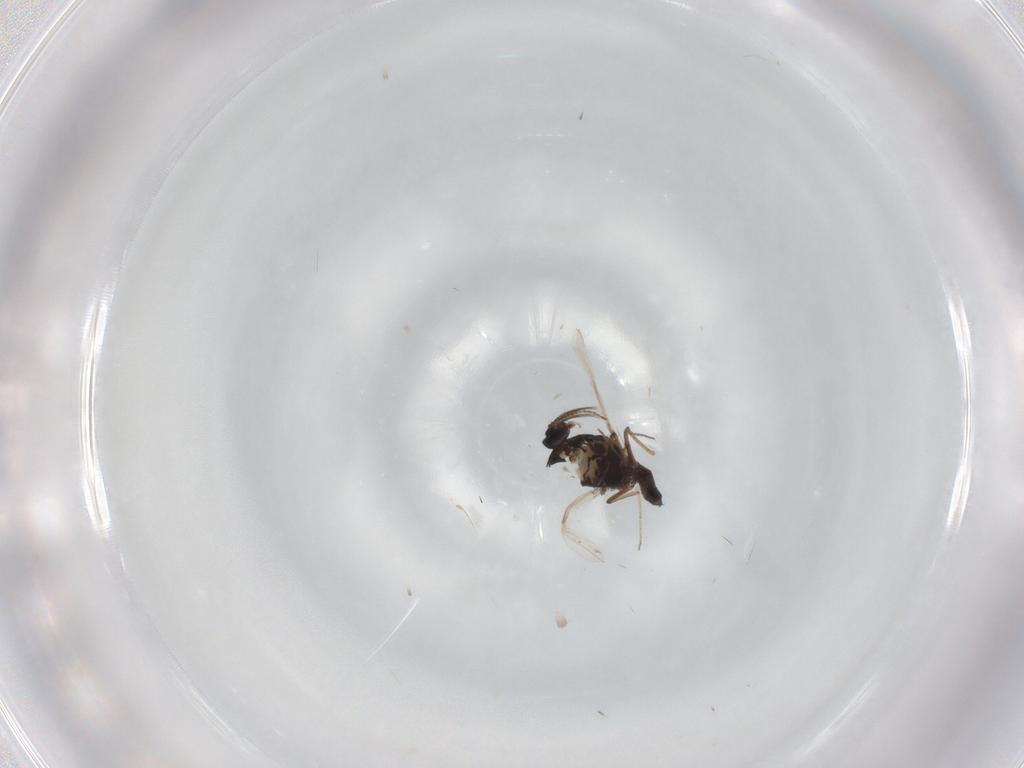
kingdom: Animalia
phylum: Arthropoda
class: Insecta
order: Diptera
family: Ceratopogonidae
